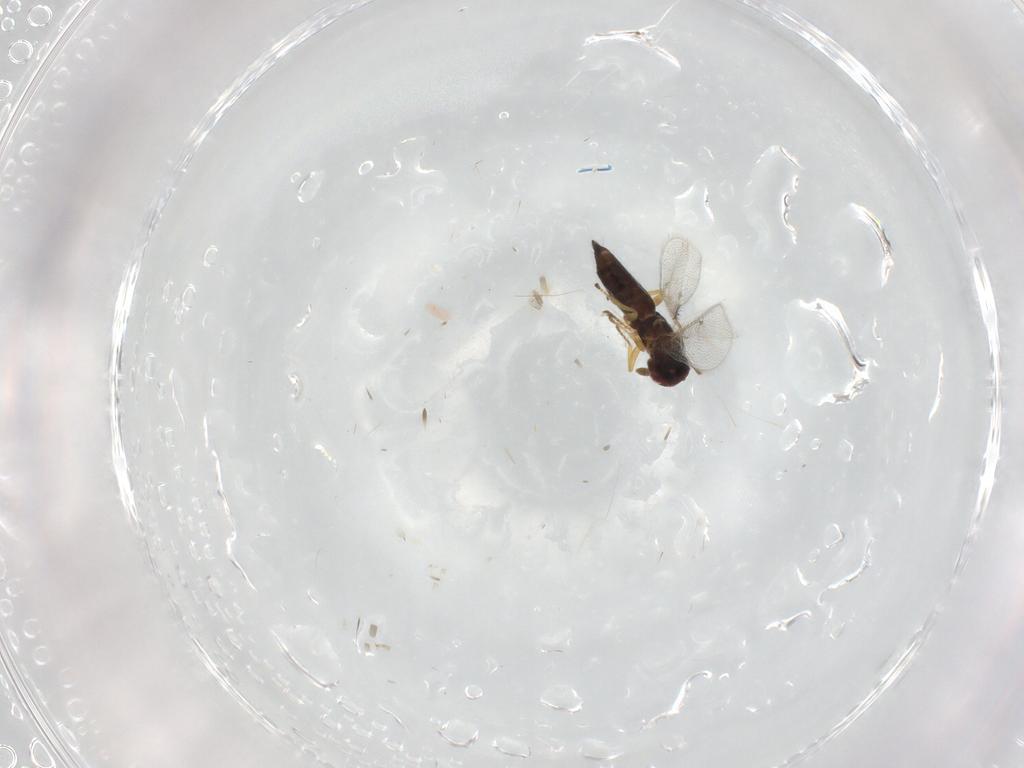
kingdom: Animalia
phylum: Arthropoda
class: Insecta
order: Hymenoptera
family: Eulophidae
